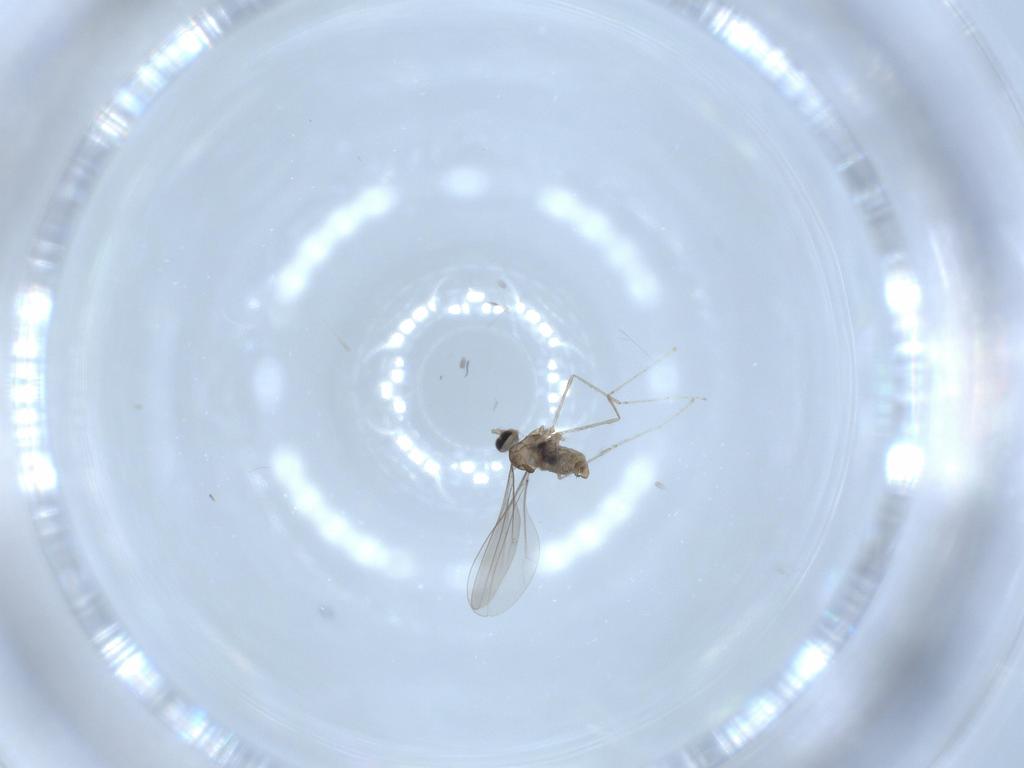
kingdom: Animalia
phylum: Arthropoda
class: Insecta
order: Diptera
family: Cecidomyiidae
